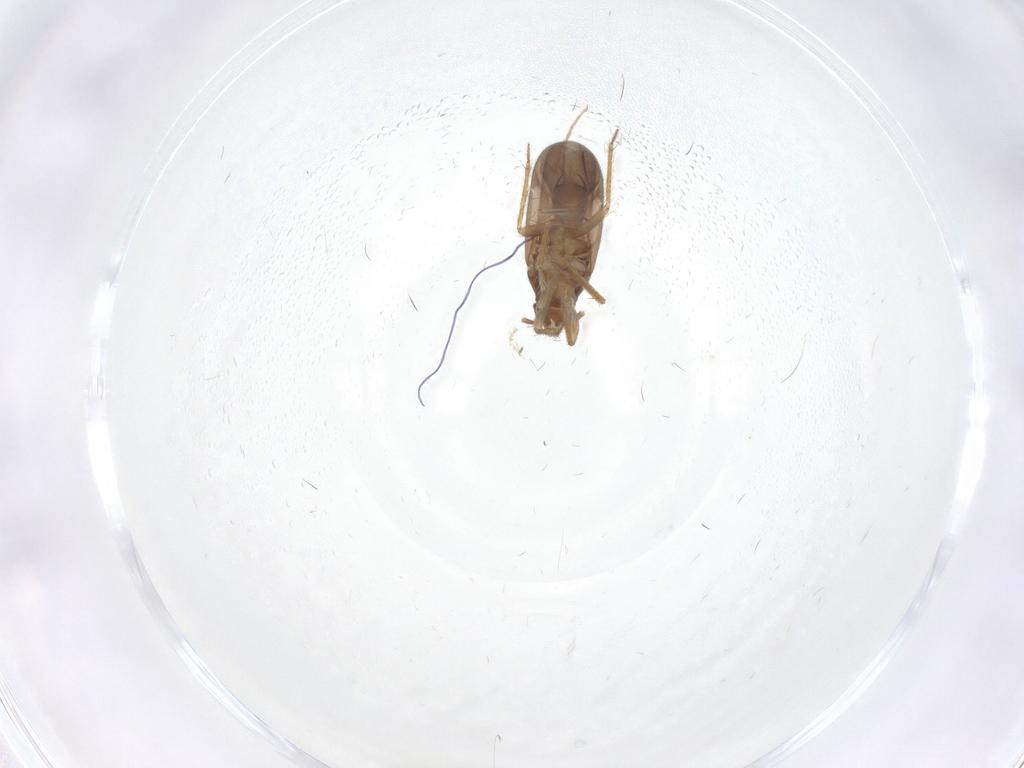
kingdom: Animalia
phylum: Arthropoda
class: Insecta
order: Hemiptera
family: Ceratocombidae
